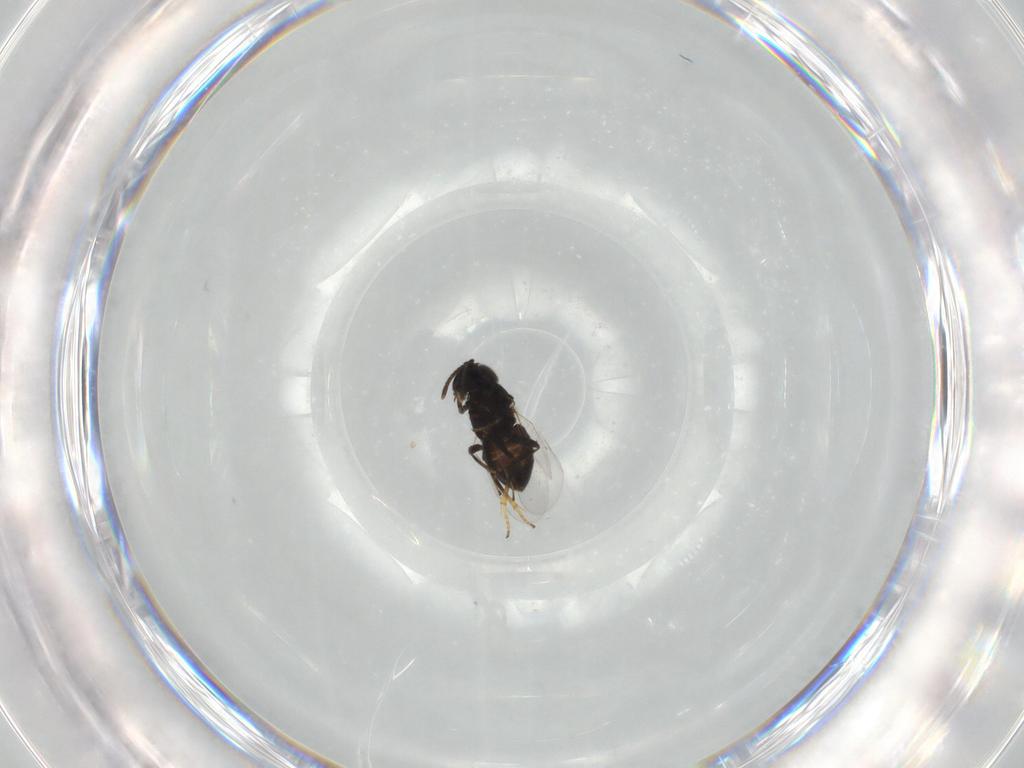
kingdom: Animalia
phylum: Arthropoda
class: Insecta
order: Hymenoptera
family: Encyrtidae
